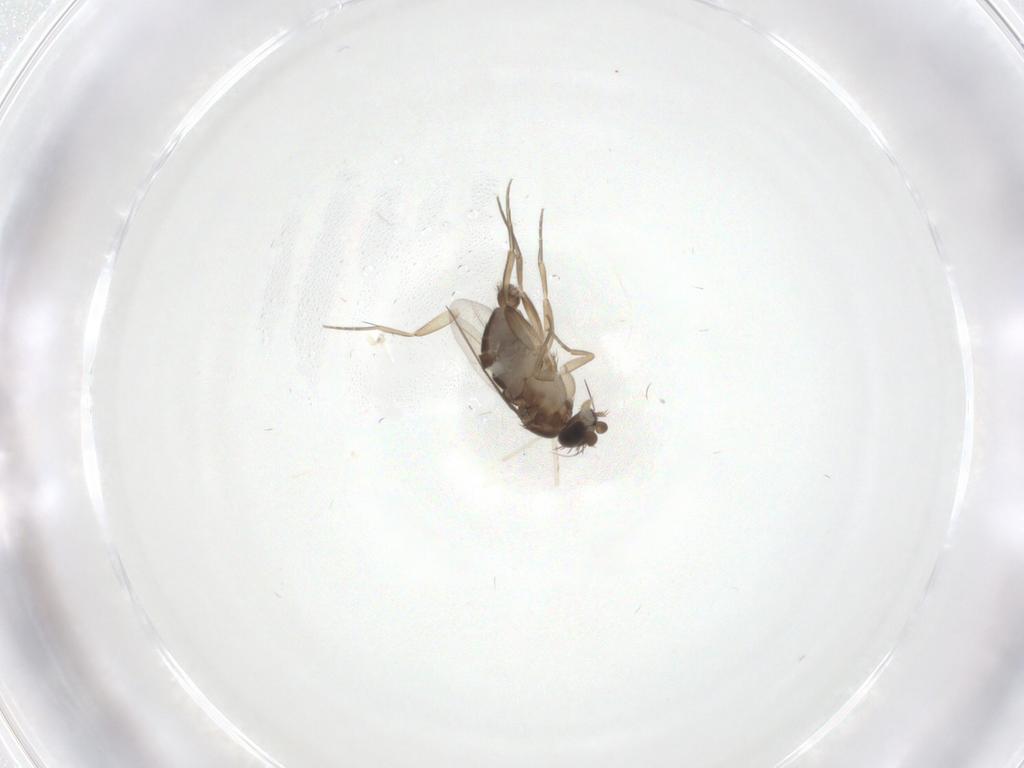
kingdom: Animalia
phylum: Arthropoda
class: Insecta
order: Diptera
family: Phoridae
